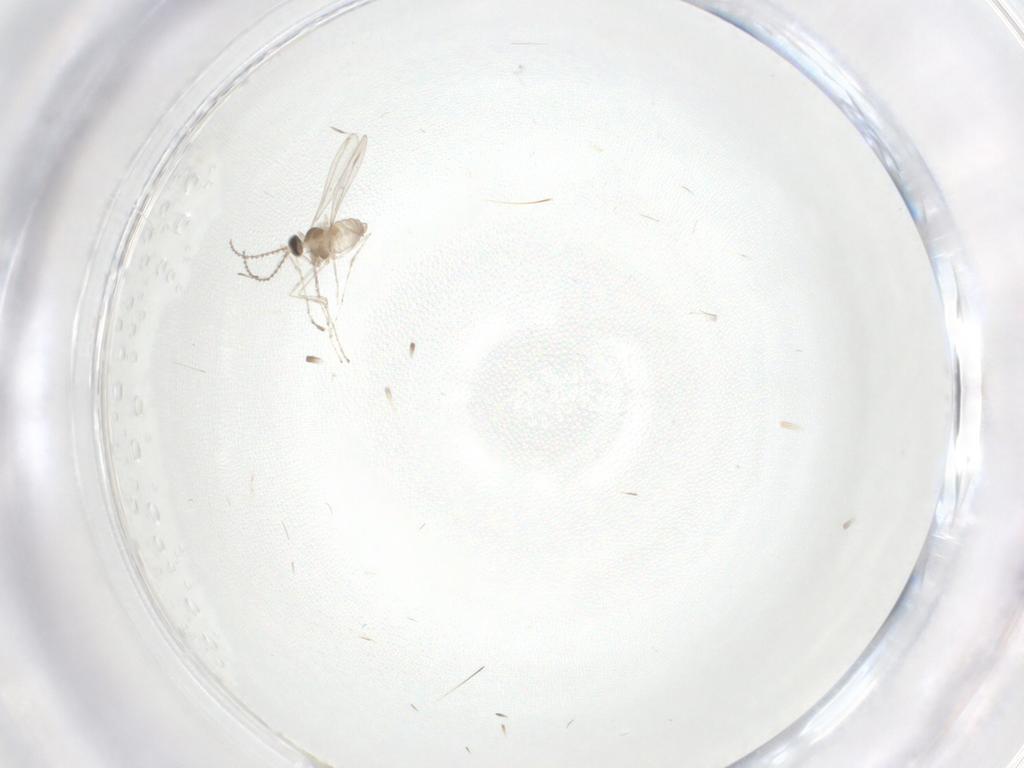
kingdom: Animalia
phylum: Arthropoda
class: Insecta
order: Diptera
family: Cecidomyiidae
